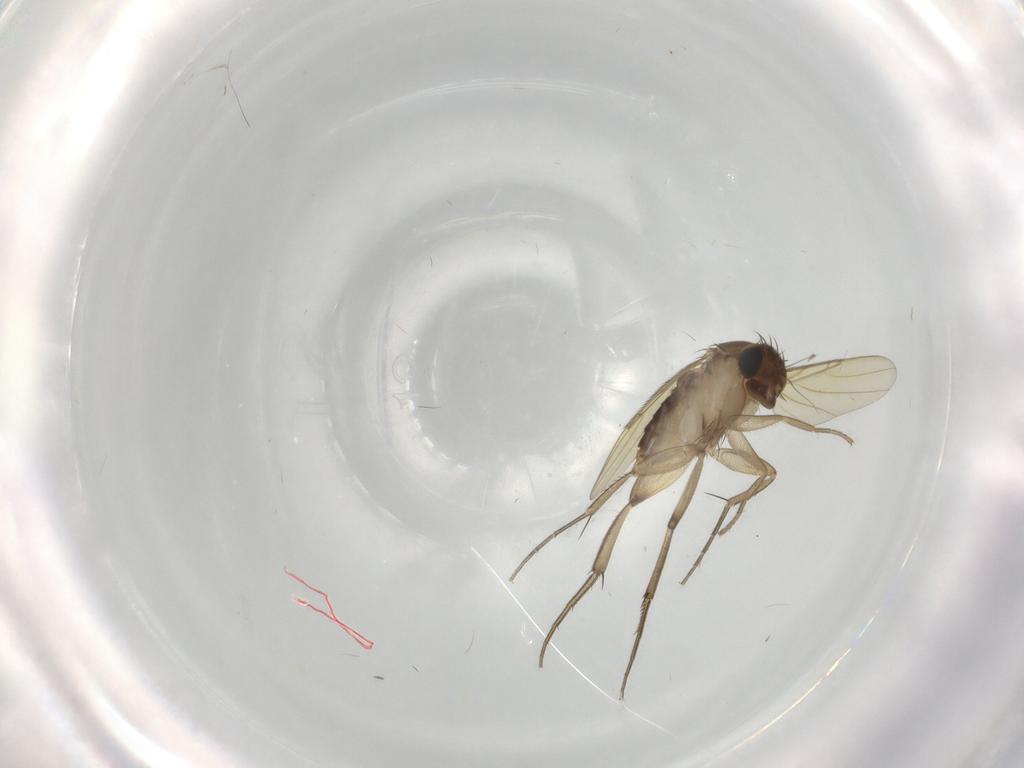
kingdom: Animalia
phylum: Arthropoda
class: Insecta
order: Diptera
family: Phoridae
